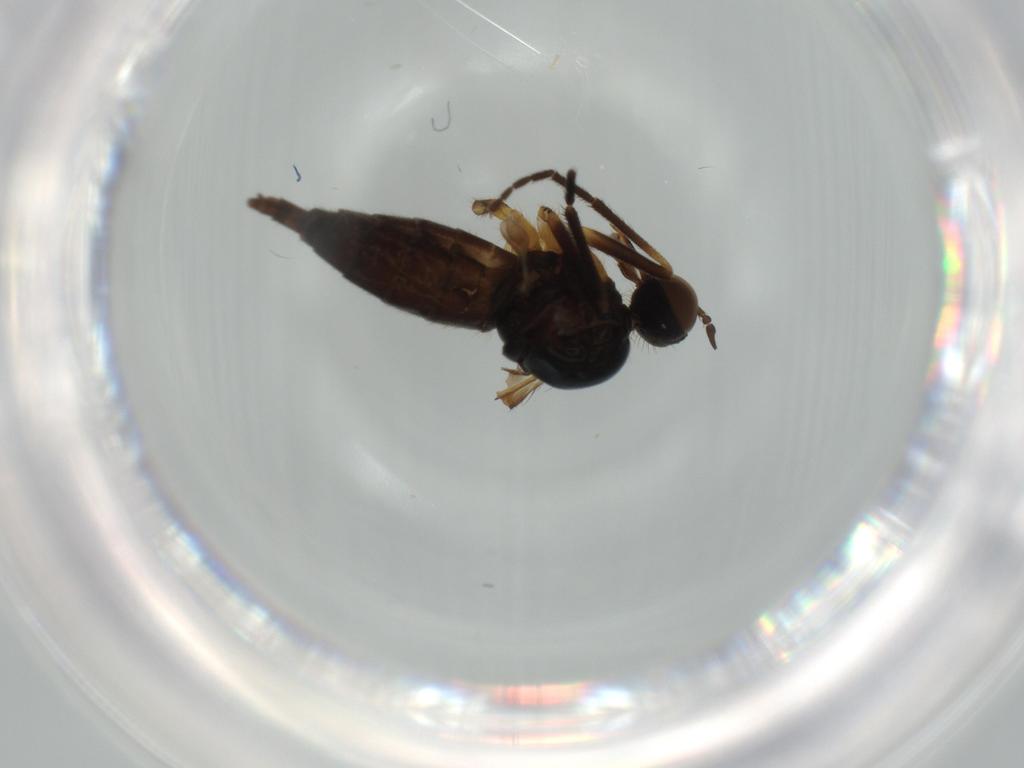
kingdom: Animalia
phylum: Arthropoda
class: Insecta
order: Diptera
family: Empididae
